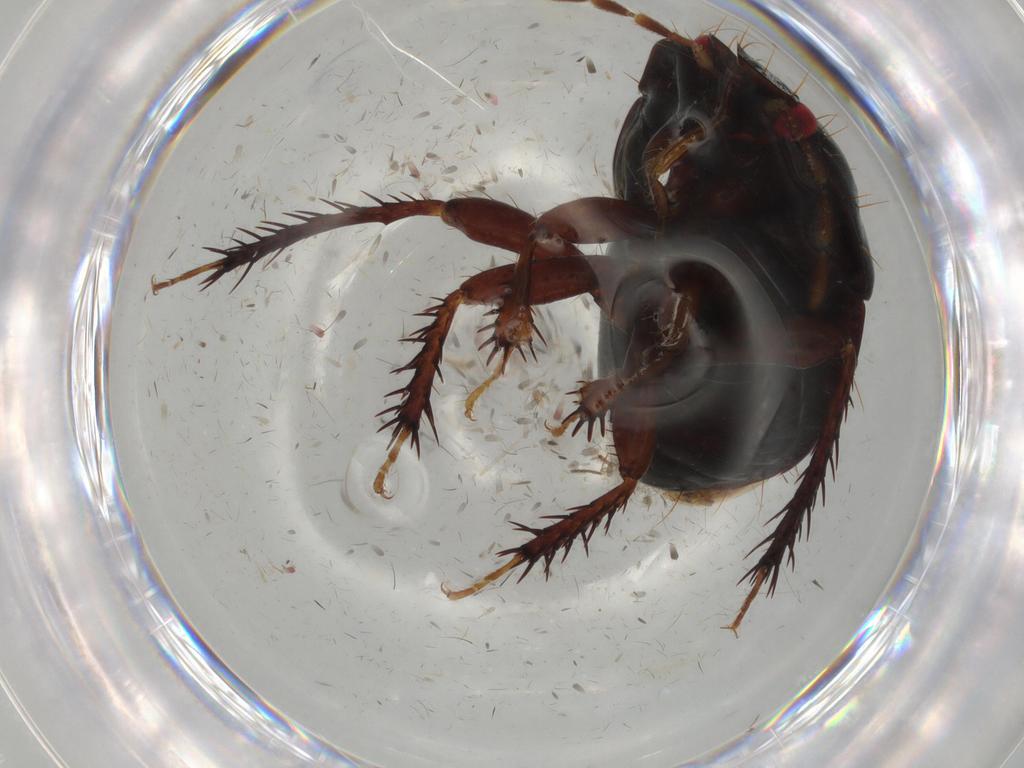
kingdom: Animalia
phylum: Arthropoda
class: Insecta
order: Hemiptera
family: Cydnidae
